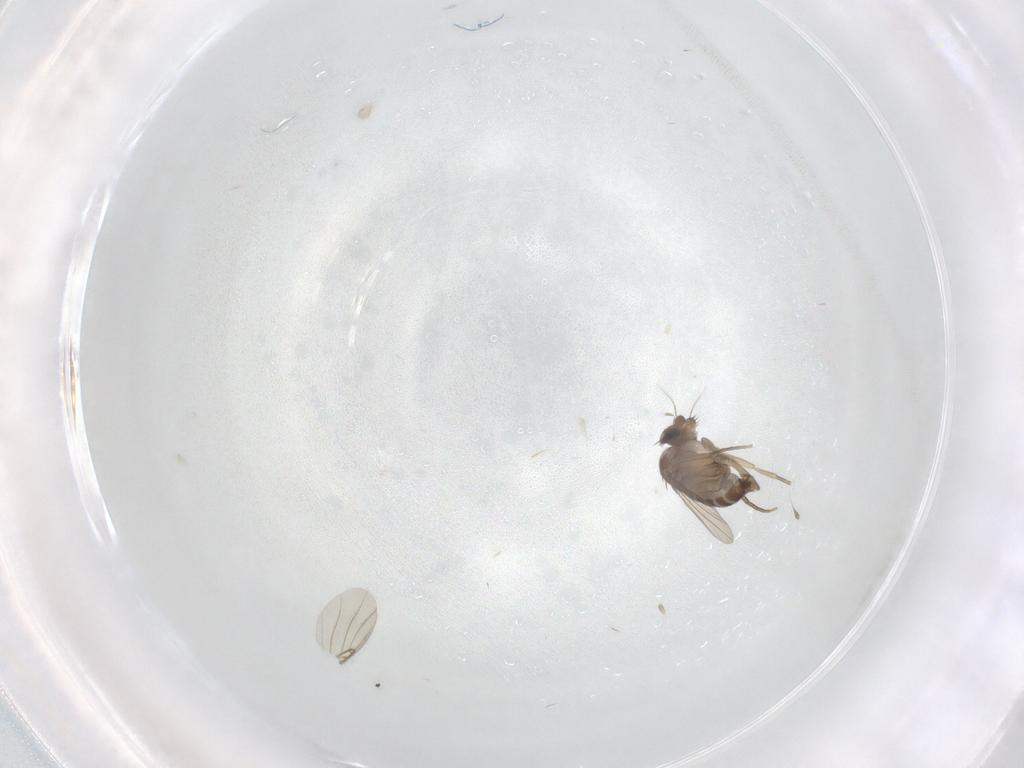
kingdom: Animalia
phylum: Arthropoda
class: Insecta
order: Diptera
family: Phoridae
